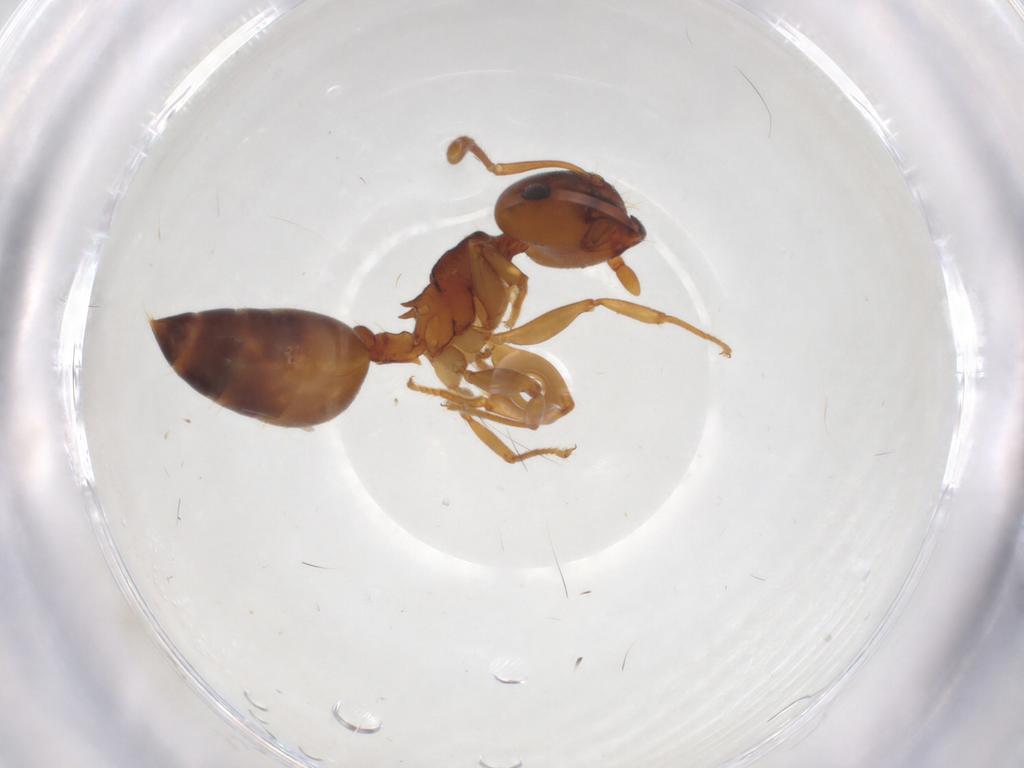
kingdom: Animalia
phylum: Arthropoda
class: Insecta
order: Hymenoptera
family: Formicidae
